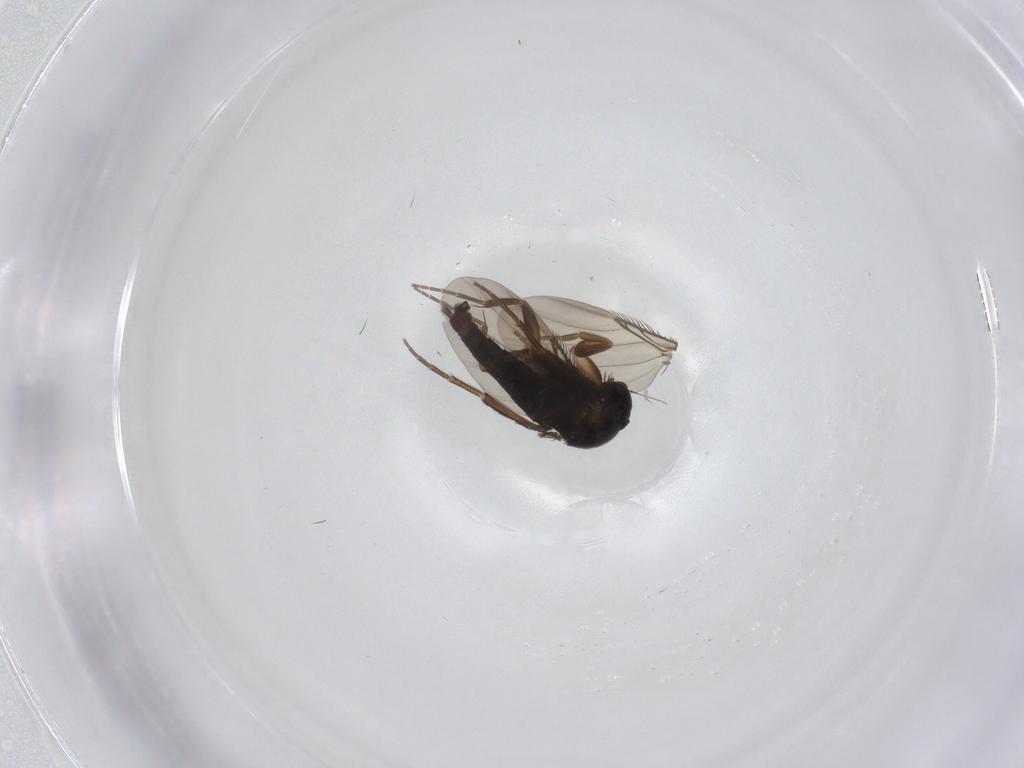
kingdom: Animalia
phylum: Arthropoda
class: Insecta
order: Diptera
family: Phoridae
